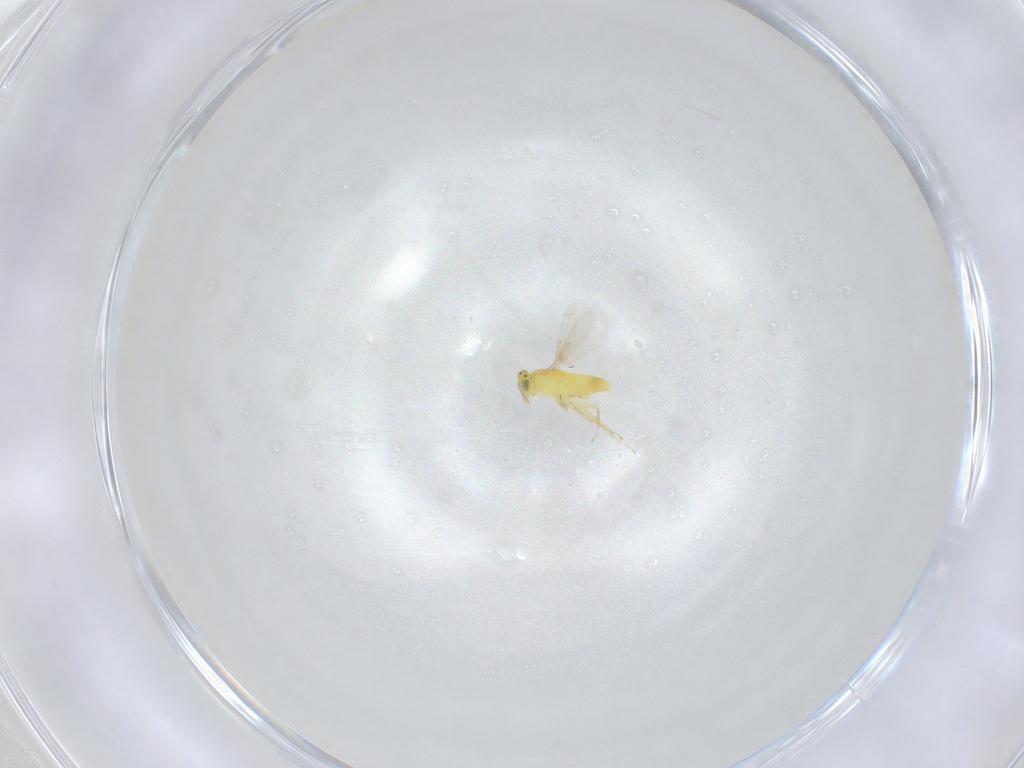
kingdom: Animalia
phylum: Arthropoda
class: Insecta
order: Hymenoptera
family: Aphelinidae
